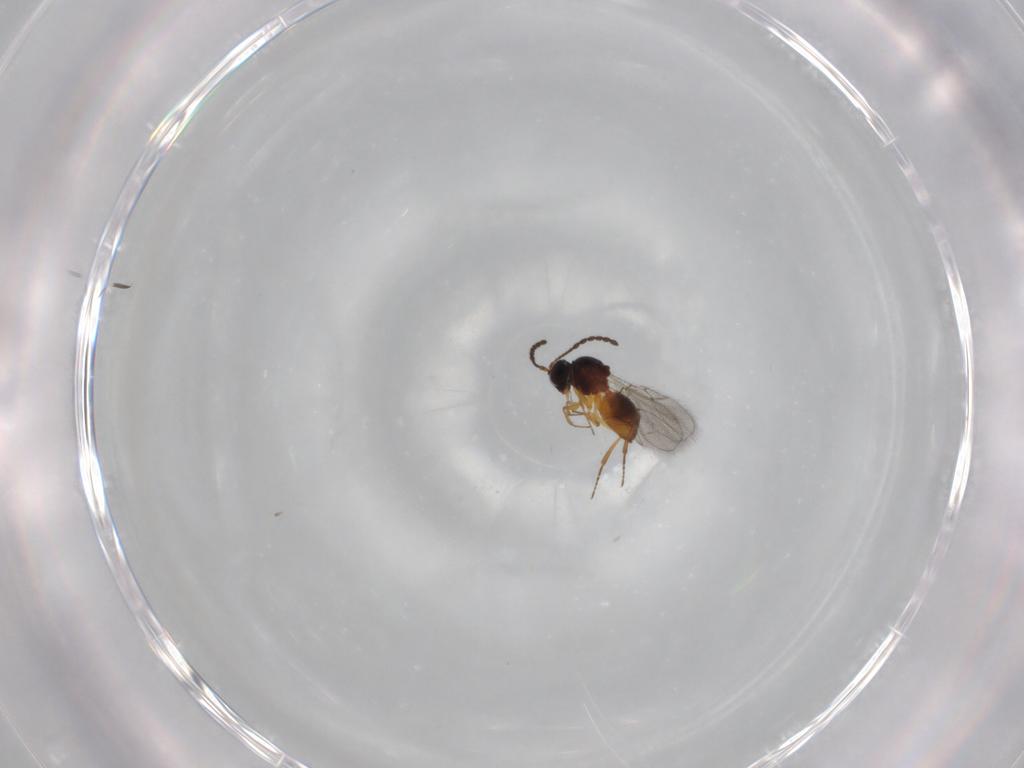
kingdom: Animalia
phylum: Arthropoda
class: Insecta
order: Hymenoptera
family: Figitidae
